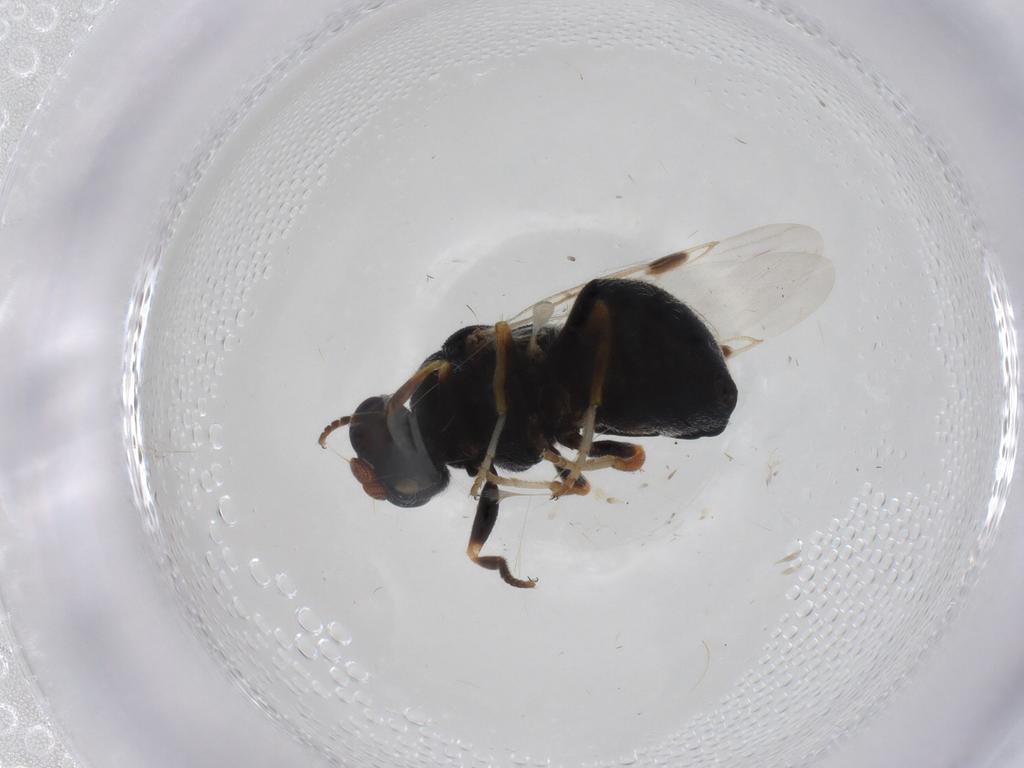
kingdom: Animalia
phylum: Arthropoda
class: Insecta
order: Diptera
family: Stratiomyidae
